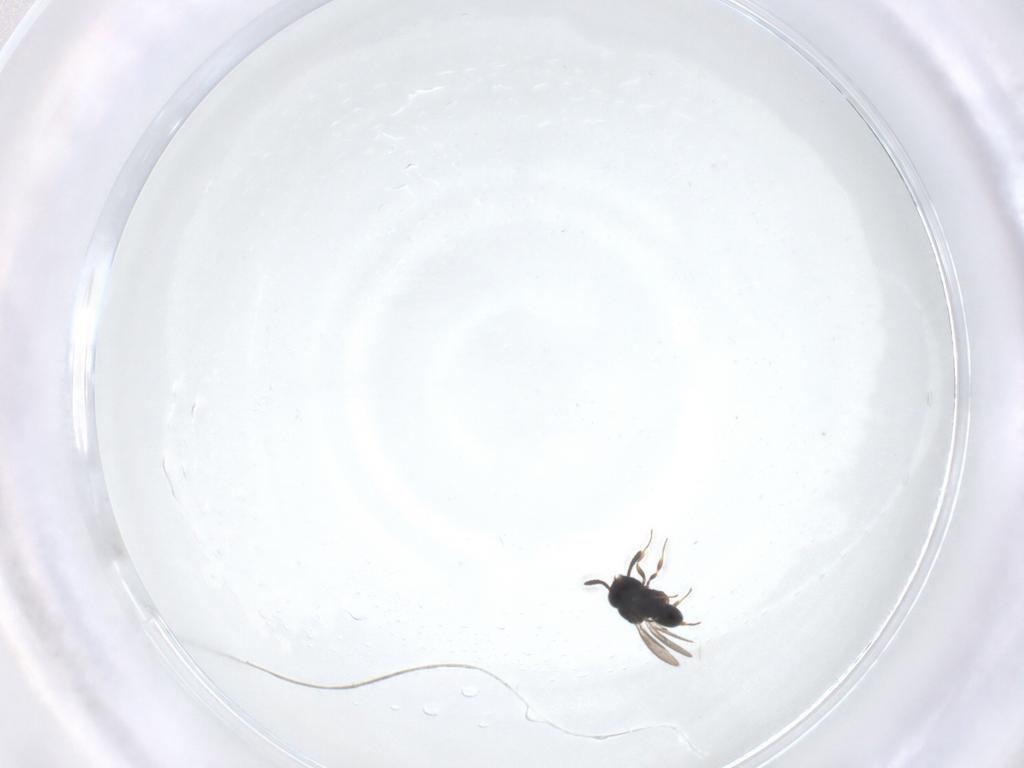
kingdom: Animalia
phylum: Arthropoda
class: Insecta
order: Hymenoptera
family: Scelionidae
